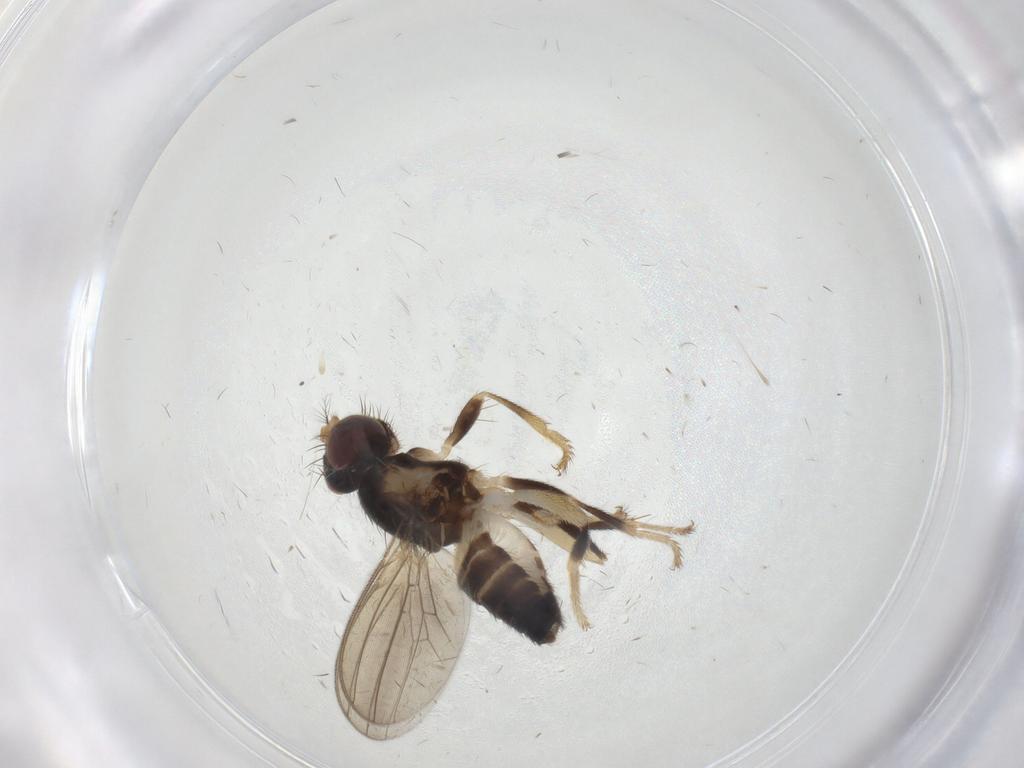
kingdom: Animalia
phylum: Arthropoda
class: Insecta
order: Diptera
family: Periscelididae
